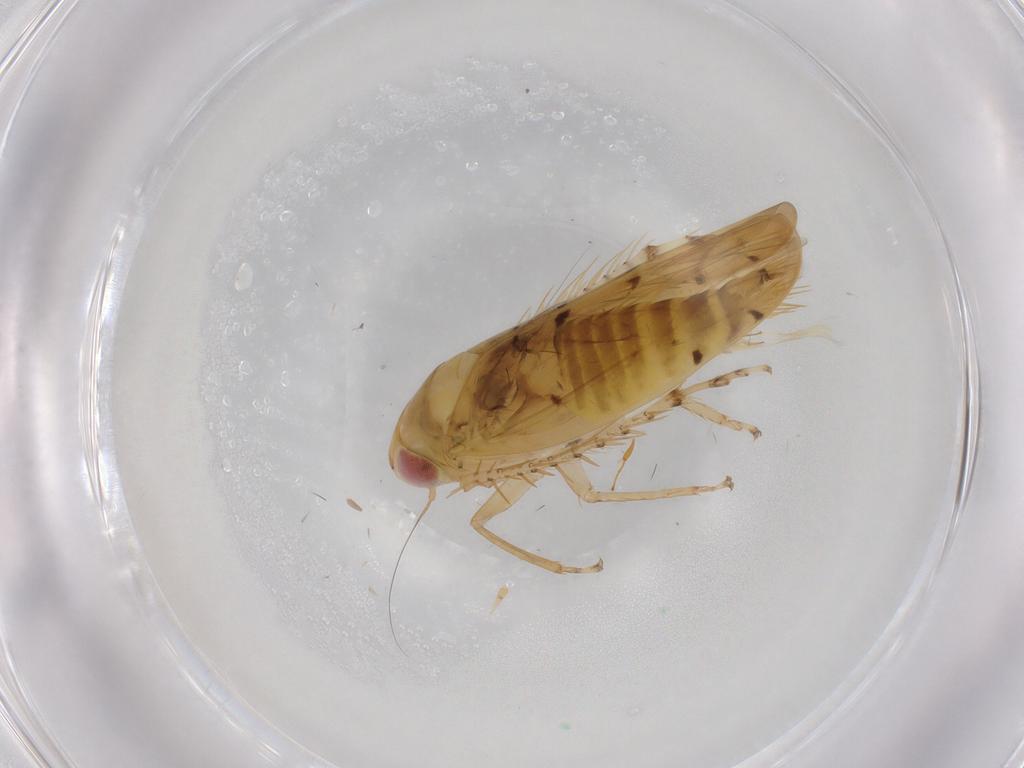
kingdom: Animalia
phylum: Arthropoda
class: Insecta
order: Hemiptera
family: Cicadellidae
